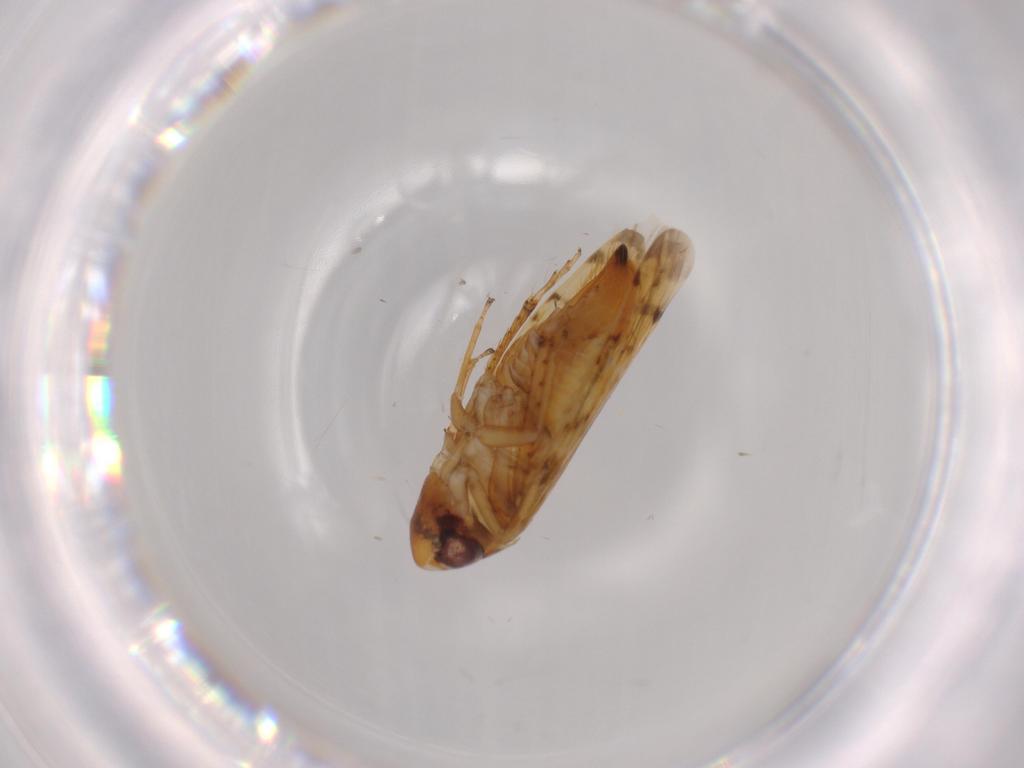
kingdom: Animalia
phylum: Arthropoda
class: Insecta
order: Hemiptera
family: Cicadellidae
